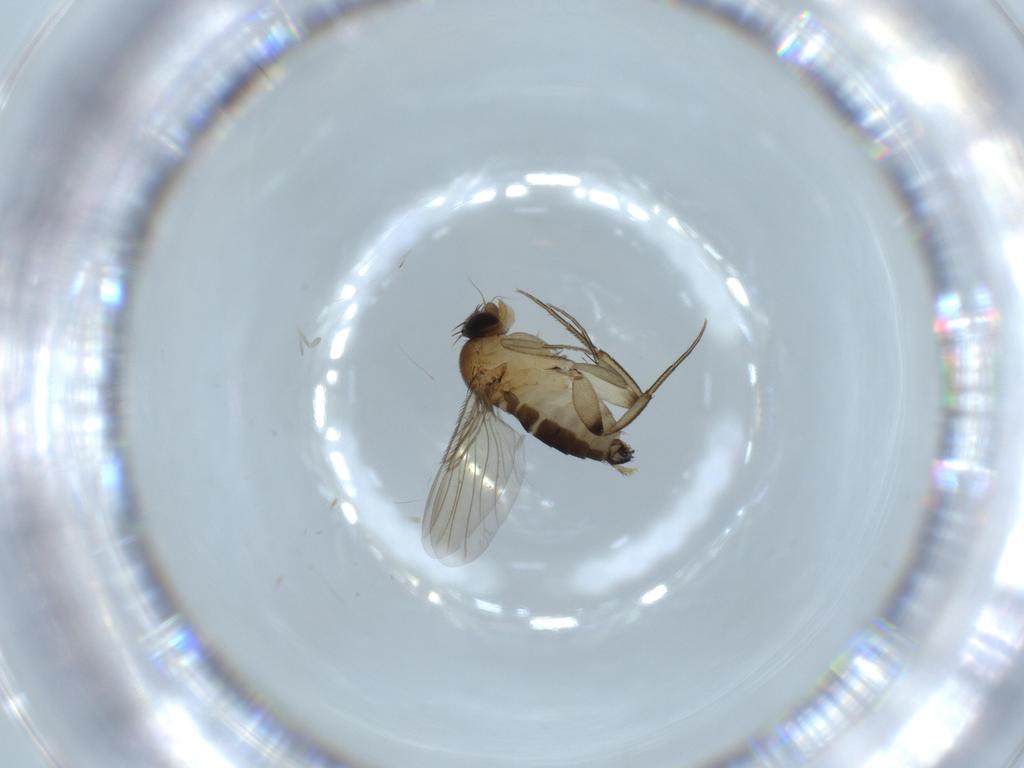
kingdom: Animalia
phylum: Arthropoda
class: Insecta
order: Diptera
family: Phoridae
